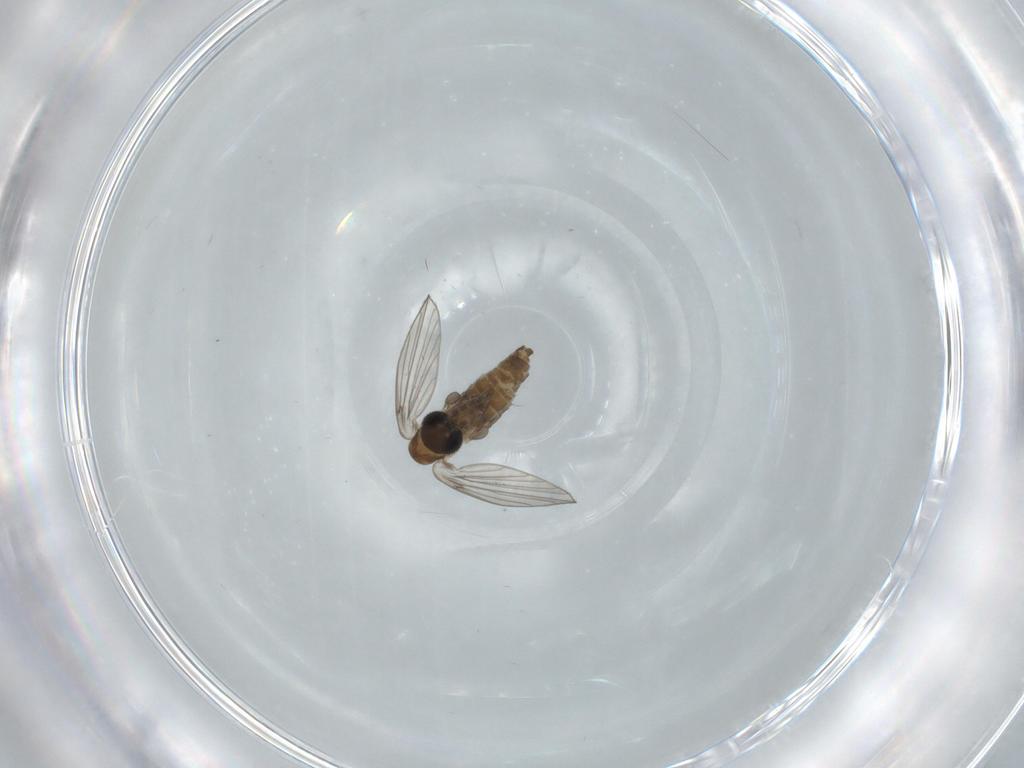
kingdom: Animalia
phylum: Arthropoda
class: Insecta
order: Diptera
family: Psychodidae
